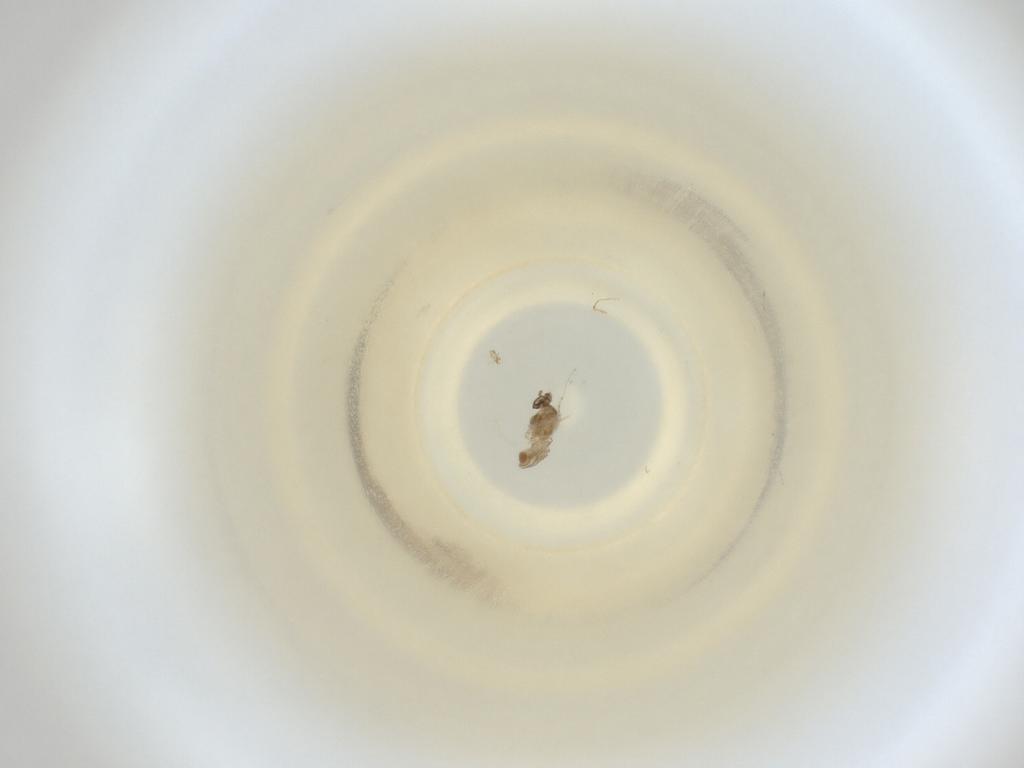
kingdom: Animalia
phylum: Arthropoda
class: Insecta
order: Diptera
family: Cecidomyiidae
